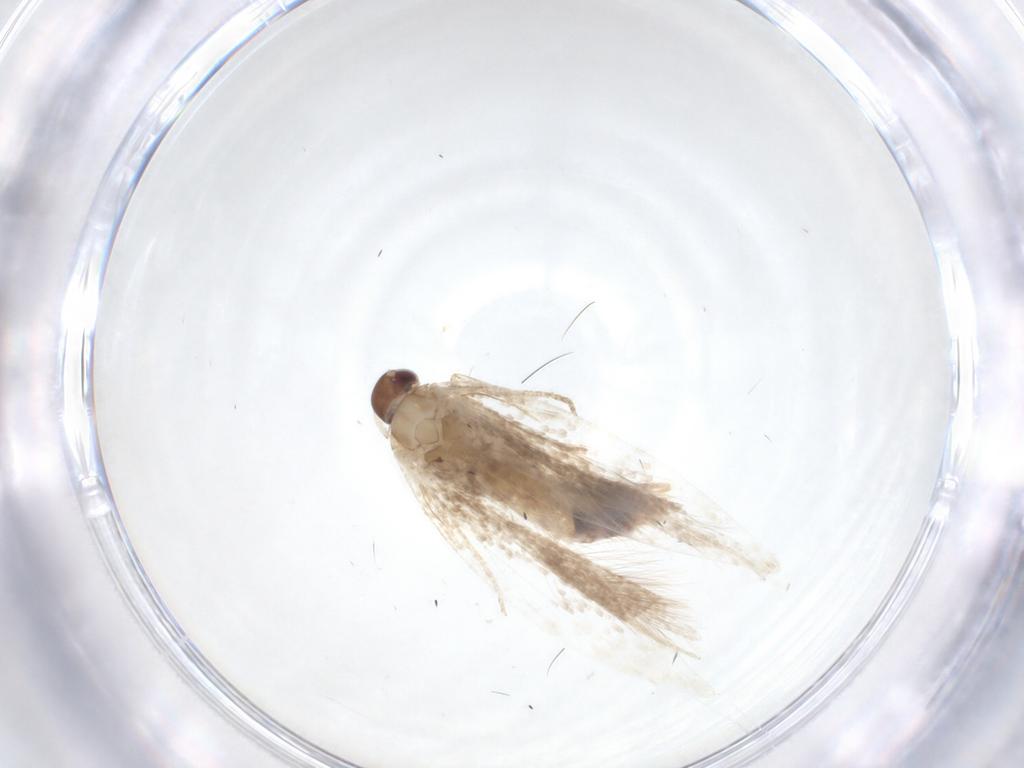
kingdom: Animalia
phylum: Arthropoda
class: Insecta
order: Lepidoptera
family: Gelechiidae
